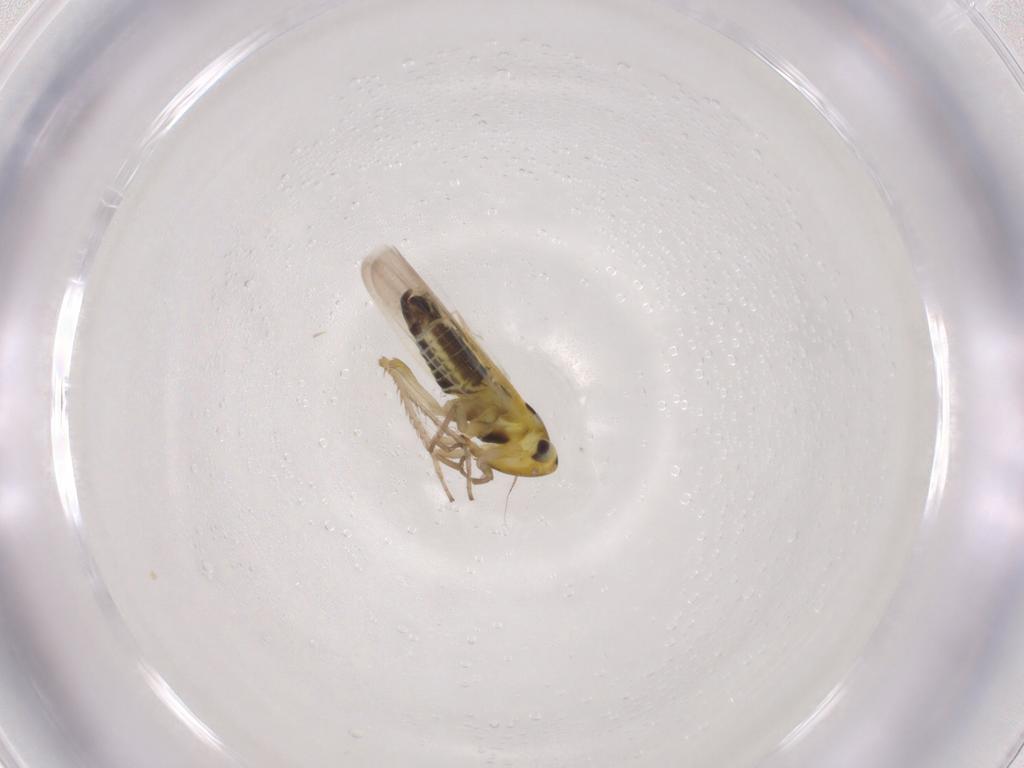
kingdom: Animalia
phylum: Arthropoda
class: Insecta
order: Hemiptera
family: Cicadellidae
